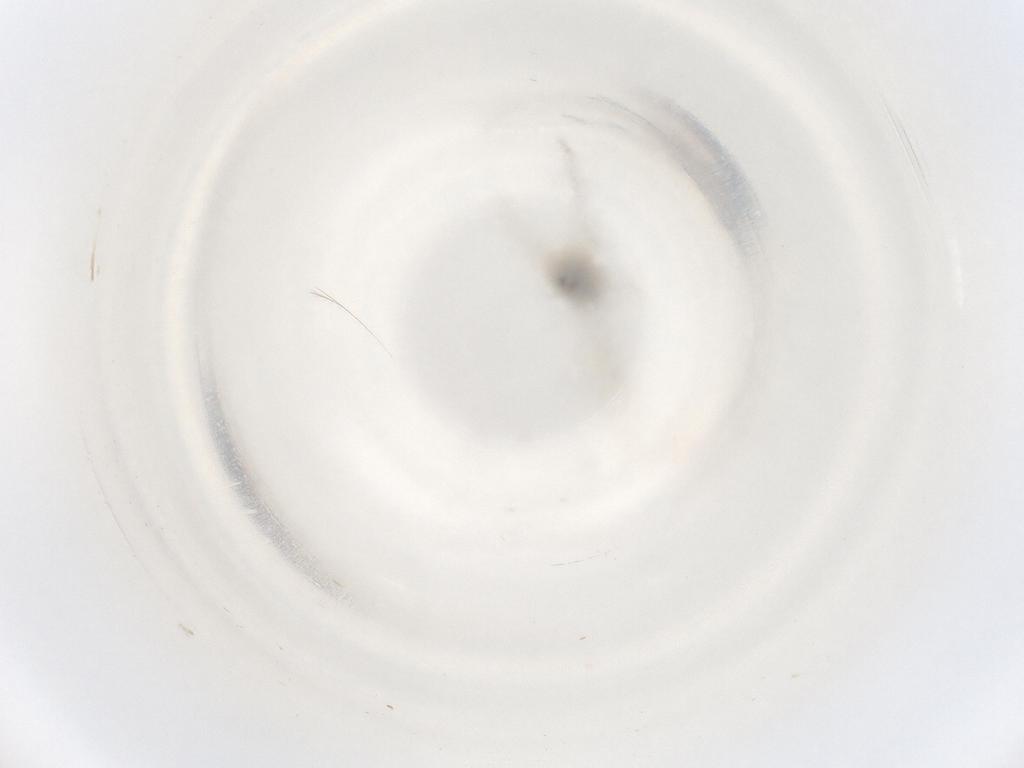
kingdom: Animalia
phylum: Arthropoda
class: Insecta
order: Diptera
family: Cecidomyiidae
